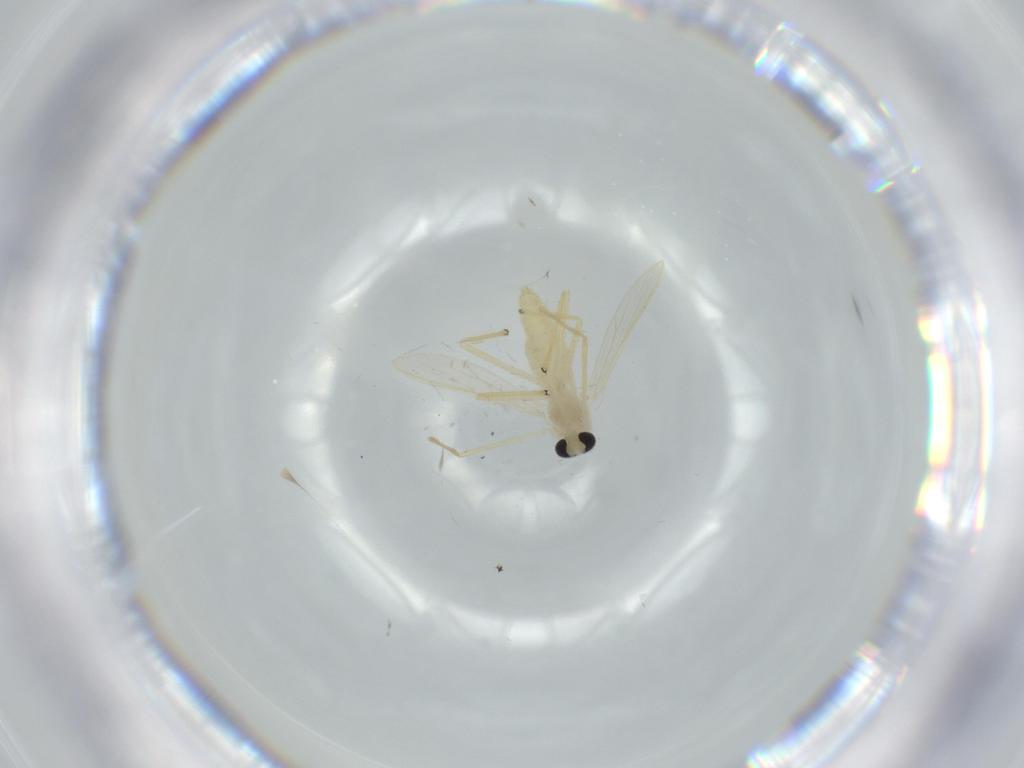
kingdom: Animalia
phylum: Arthropoda
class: Insecta
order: Diptera
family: Chironomidae
